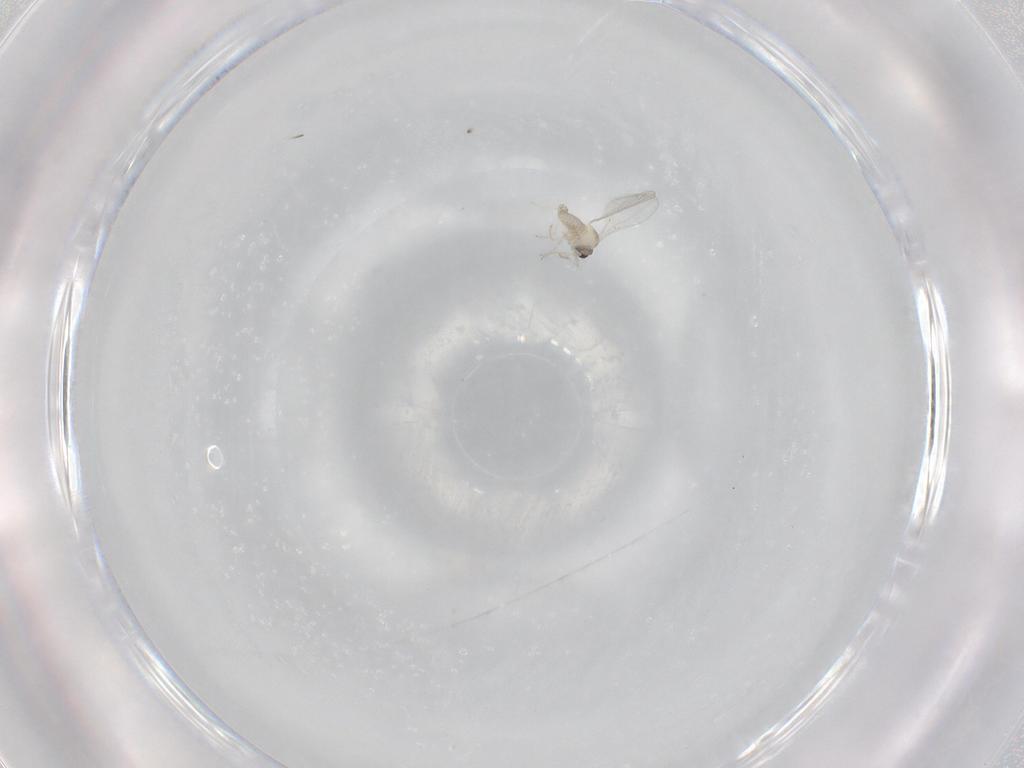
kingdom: Animalia
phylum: Arthropoda
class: Insecta
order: Diptera
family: Cecidomyiidae
